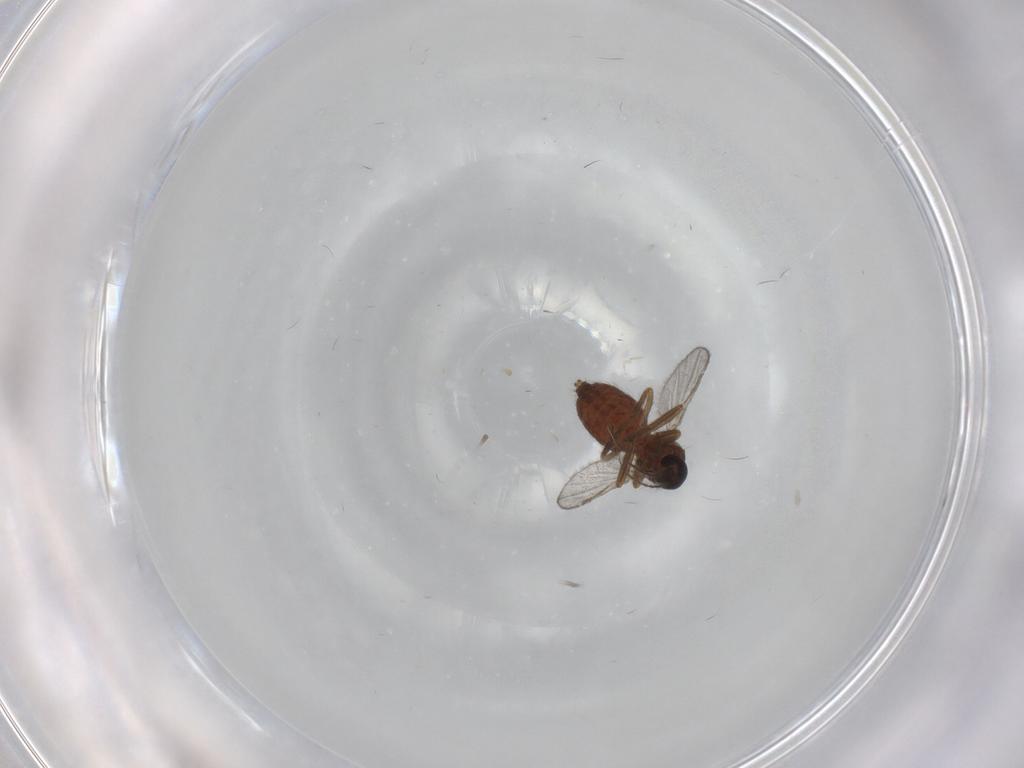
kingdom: Animalia
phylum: Arthropoda
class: Insecta
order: Diptera
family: Ceratopogonidae
